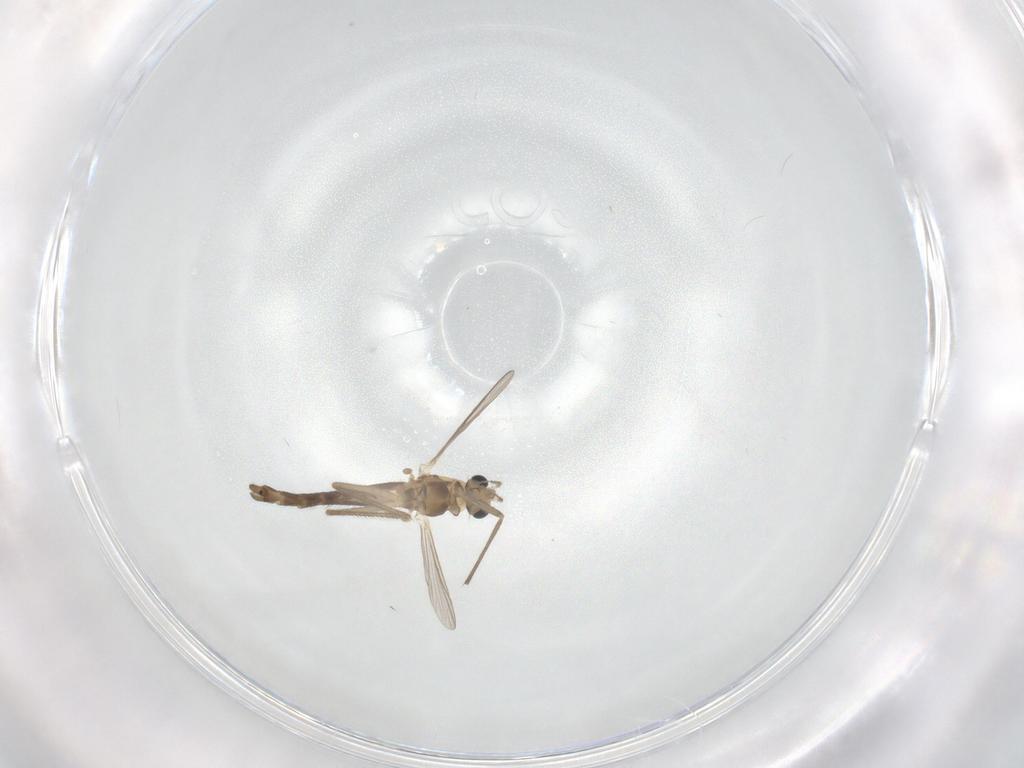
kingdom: Animalia
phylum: Arthropoda
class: Insecta
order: Diptera
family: Chironomidae
